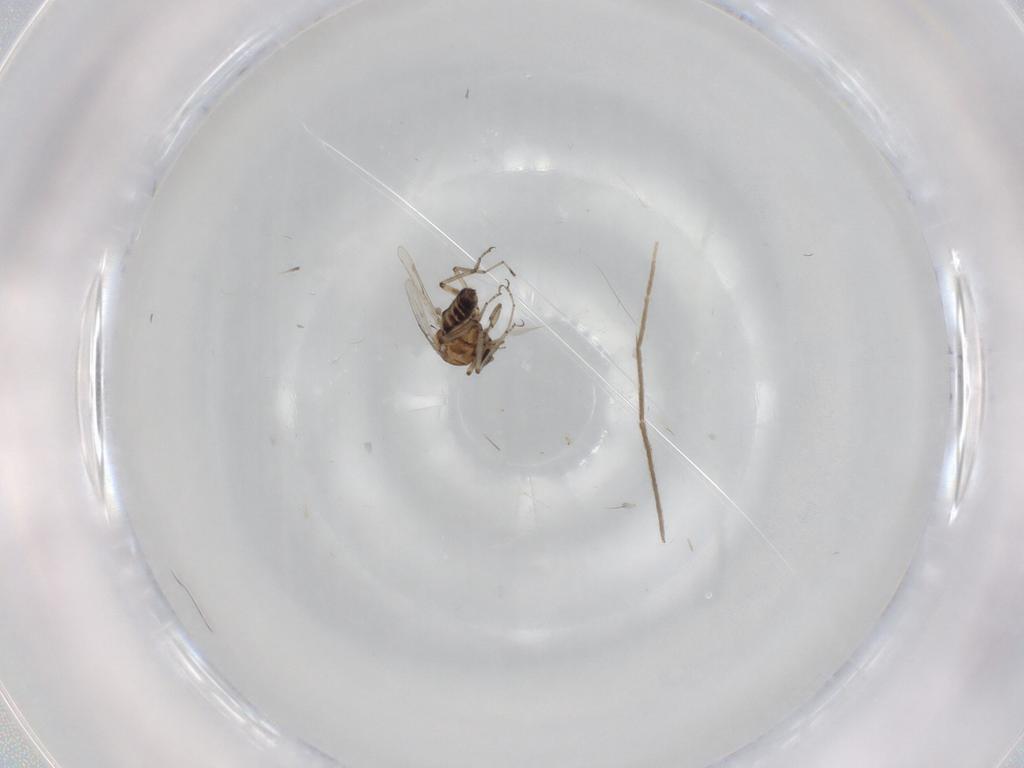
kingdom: Animalia
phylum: Arthropoda
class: Insecta
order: Diptera
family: Chironomidae
